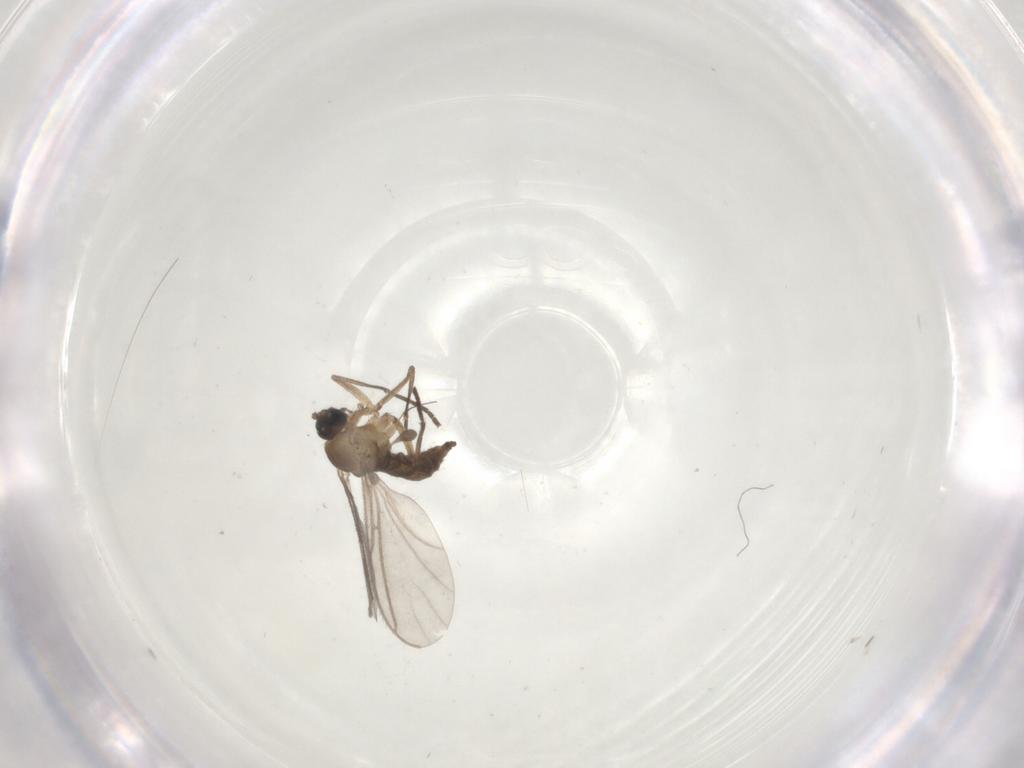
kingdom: Animalia
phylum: Arthropoda
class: Insecta
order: Diptera
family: Sciaridae
